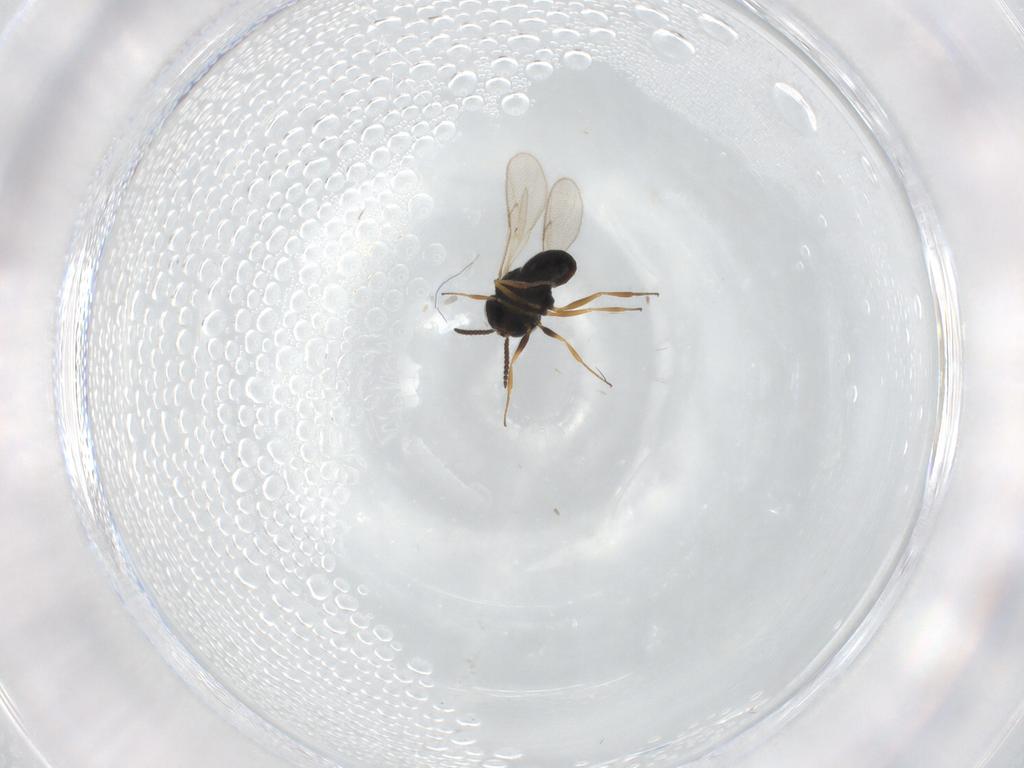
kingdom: Animalia
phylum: Arthropoda
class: Insecta
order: Hymenoptera
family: Scelionidae
